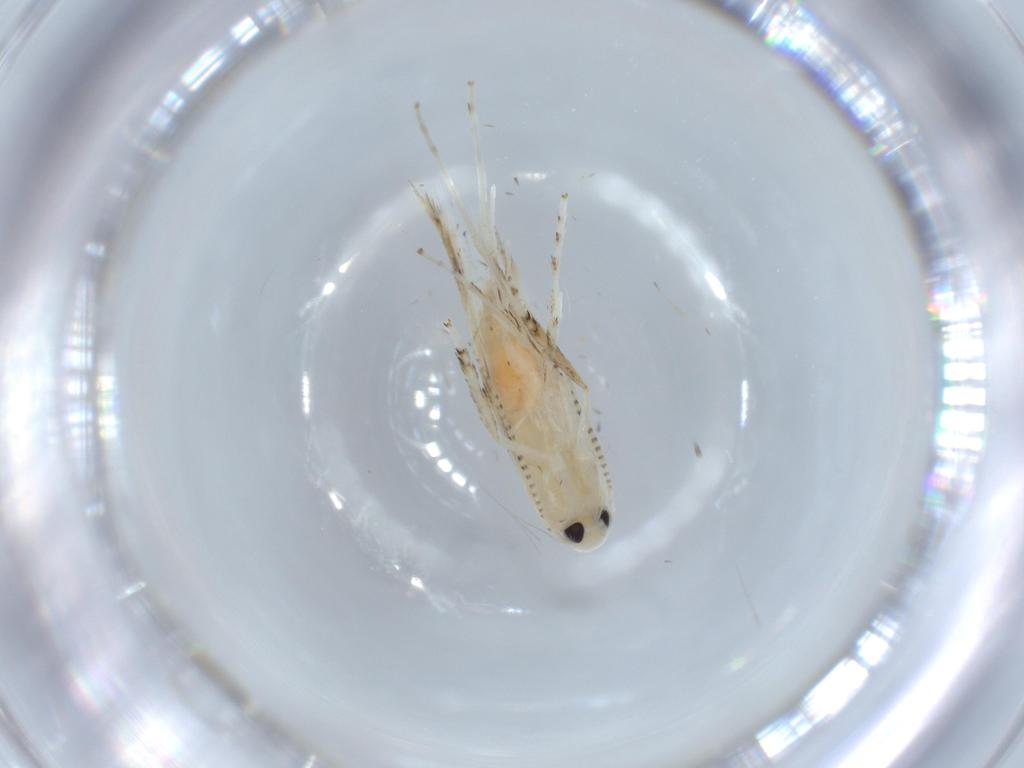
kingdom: Animalia
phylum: Arthropoda
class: Insecta
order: Lepidoptera
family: Gracillariidae
